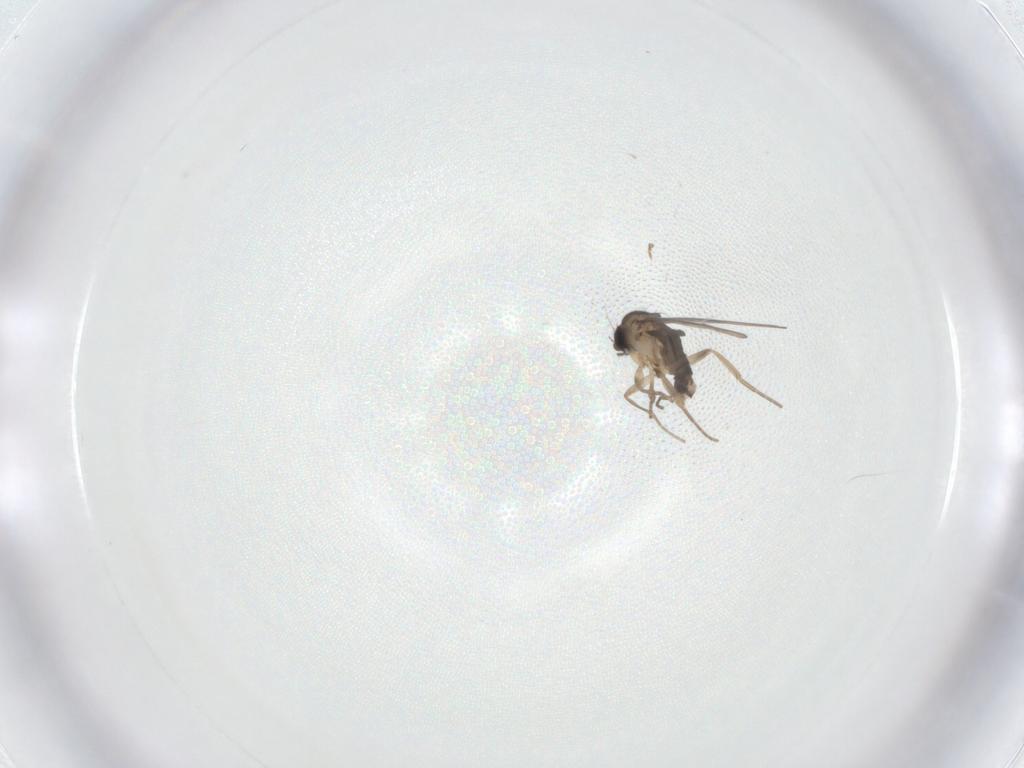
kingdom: Animalia
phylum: Arthropoda
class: Insecta
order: Diptera
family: Phoridae
